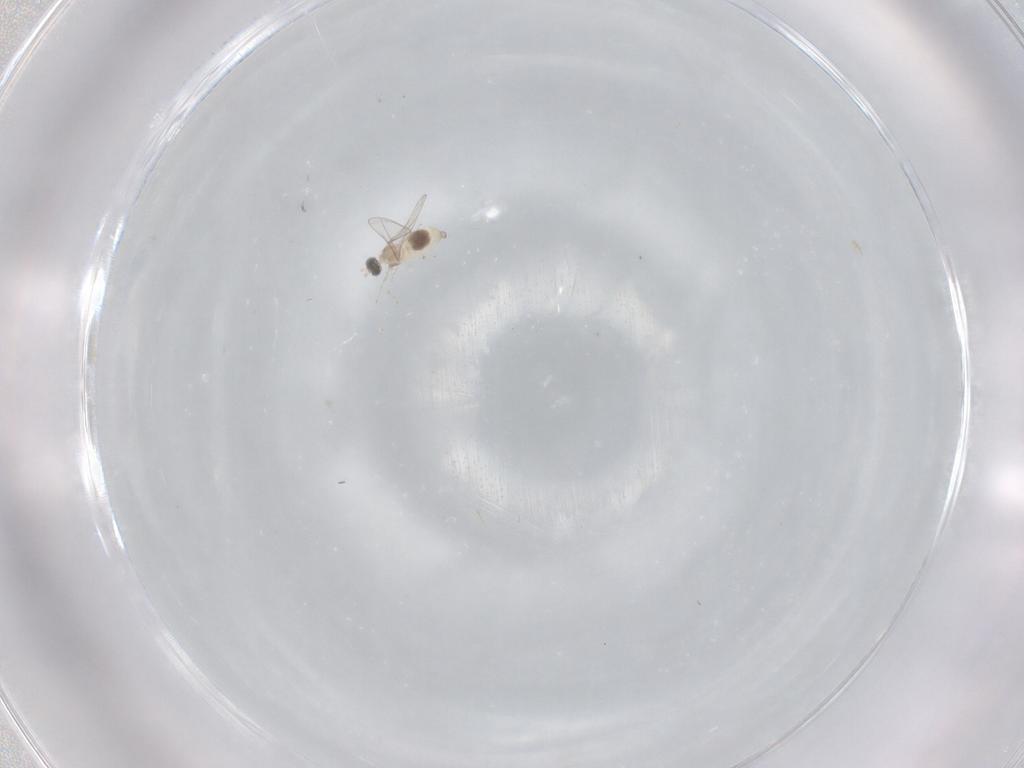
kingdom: Animalia
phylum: Arthropoda
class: Insecta
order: Diptera
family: Cecidomyiidae
